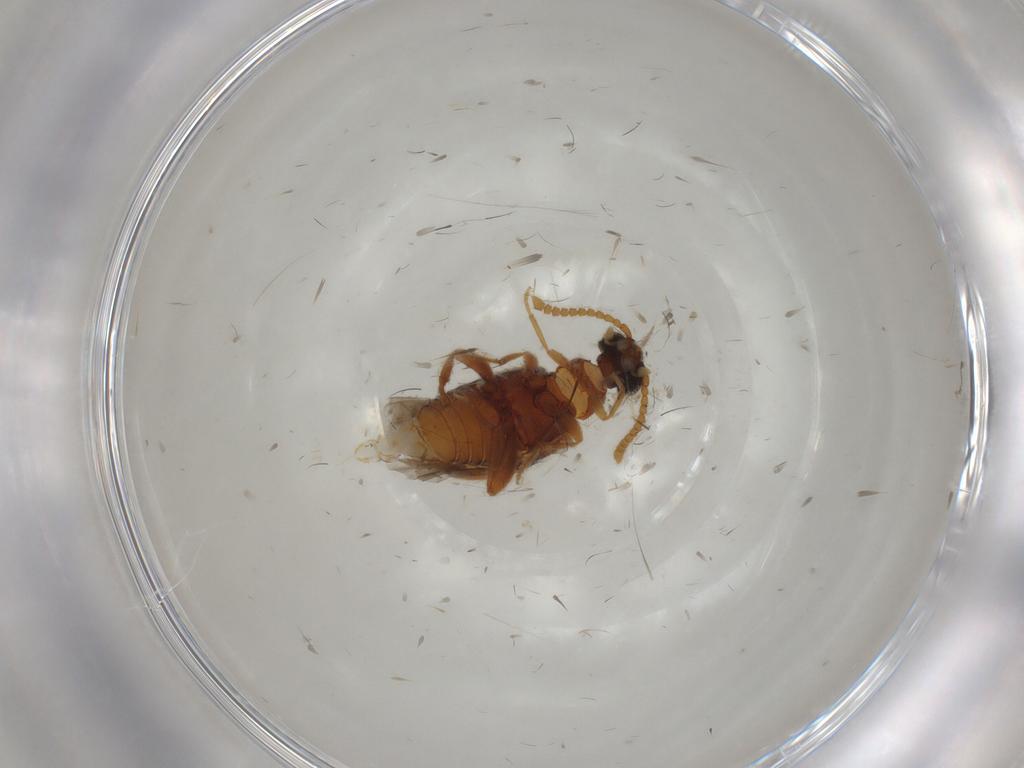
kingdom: Animalia
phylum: Arthropoda
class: Insecta
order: Coleoptera
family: Aderidae
